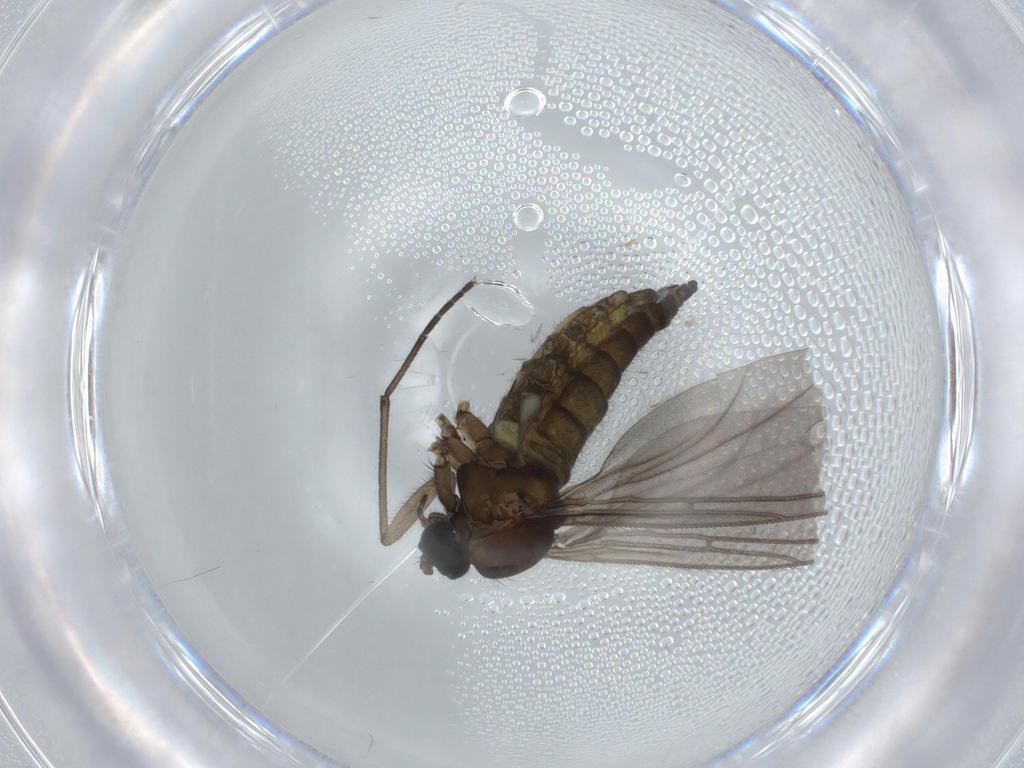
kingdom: Animalia
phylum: Arthropoda
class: Insecta
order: Diptera
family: Sciaridae
